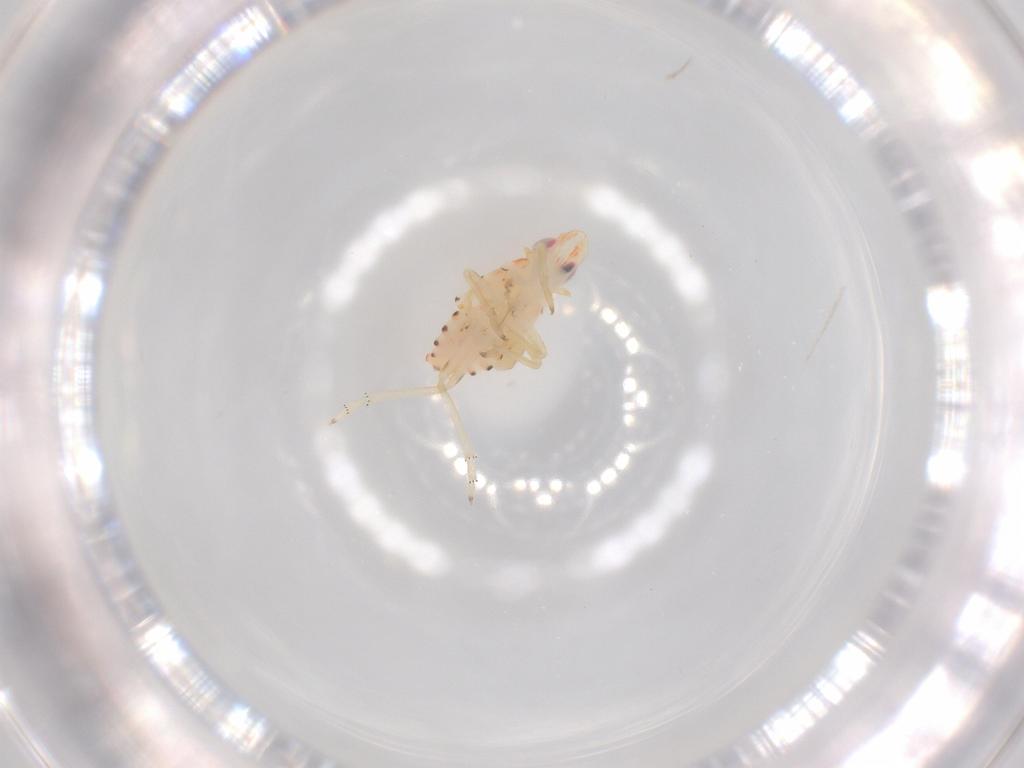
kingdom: Animalia
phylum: Arthropoda
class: Insecta
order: Hemiptera
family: Tropiduchidae
